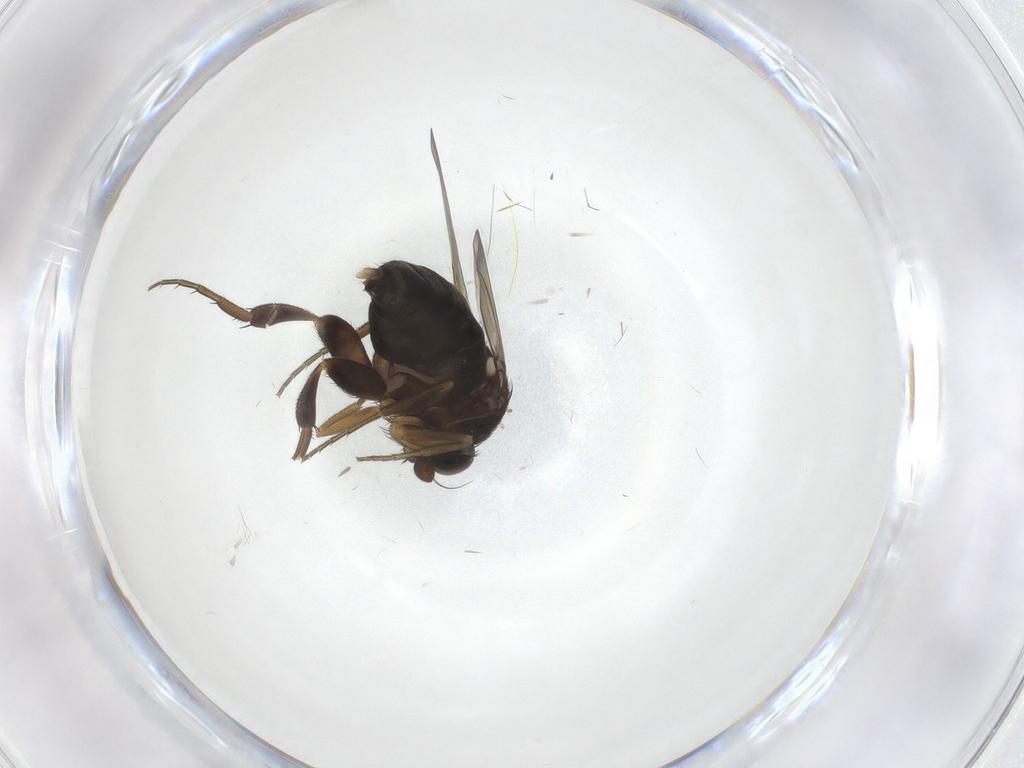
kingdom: Animalia
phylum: Arthropoda
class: Insecta
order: Diptera
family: Phoridae
